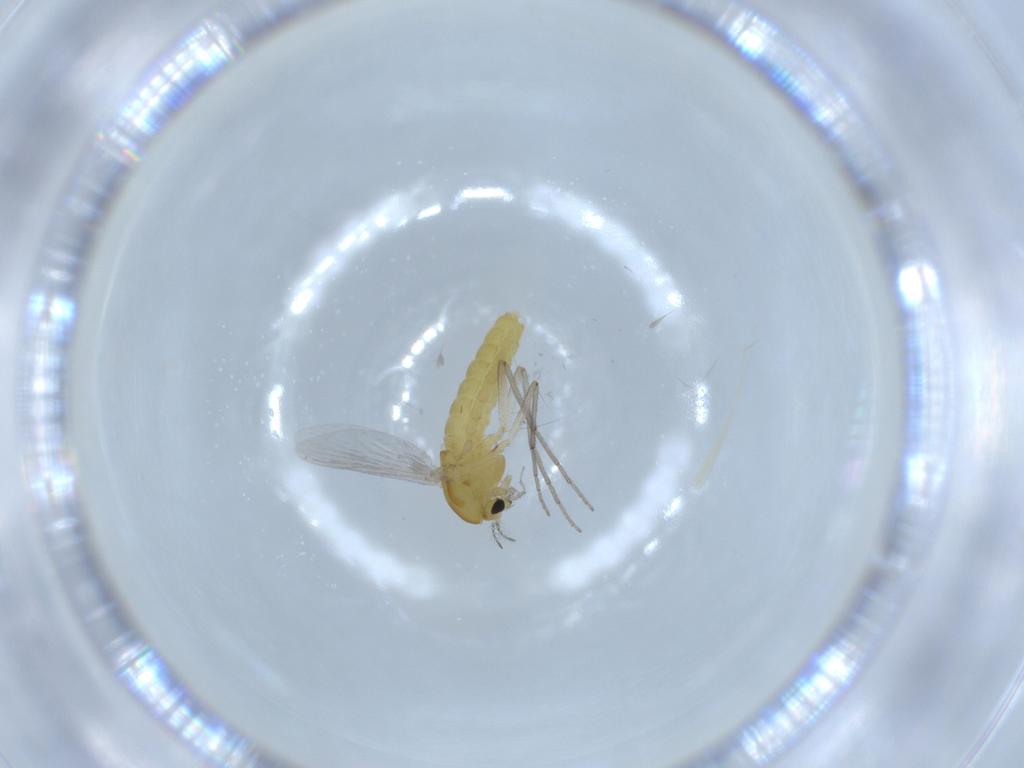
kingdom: Animalia
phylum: Arthropoda
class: Insecta
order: Diptera
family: Chironomidae
